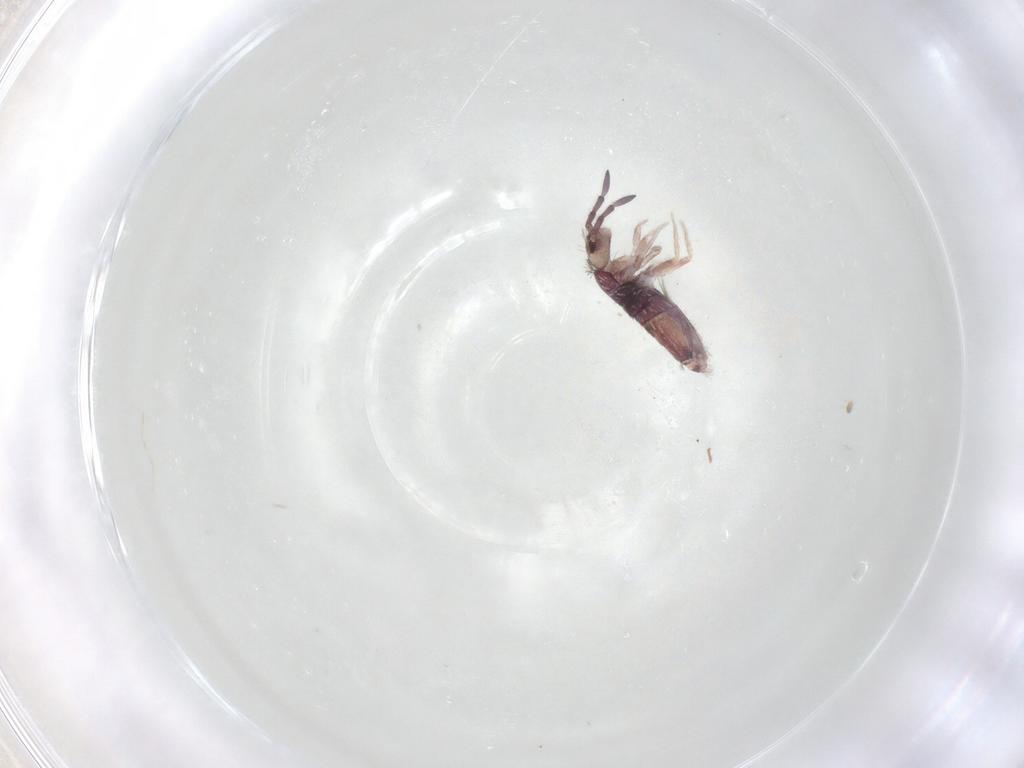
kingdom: Animalia
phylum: Arthropoda
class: Collembola
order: Entomobryomorpha
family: Entomobryidae
